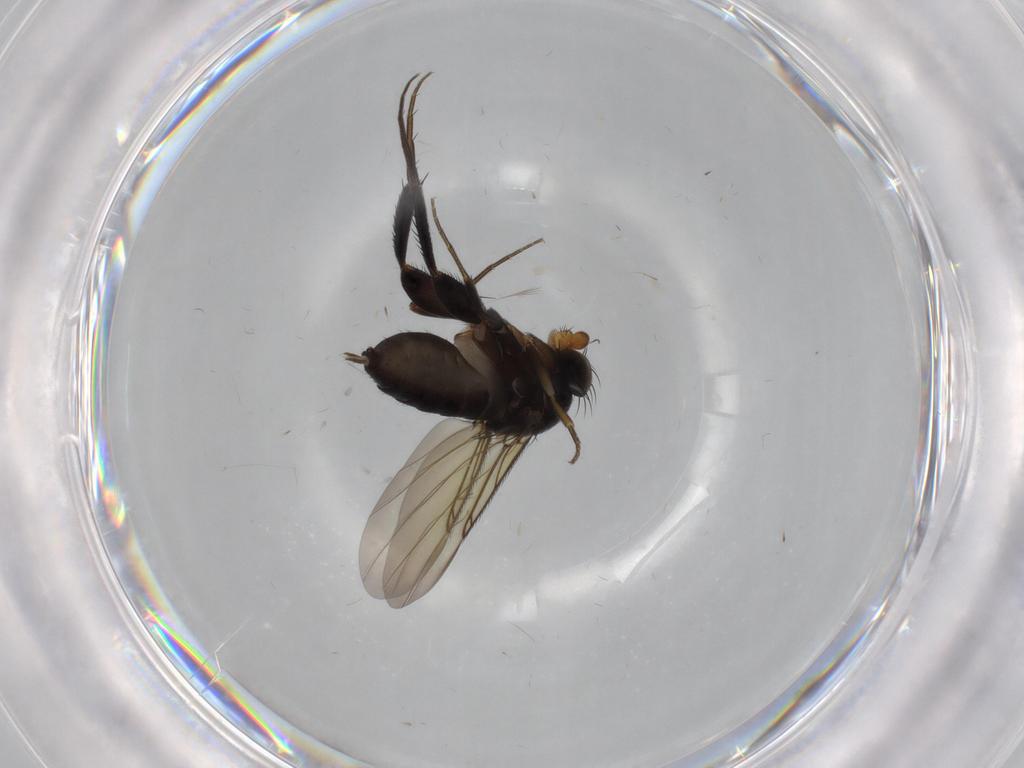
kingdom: Animalia
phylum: Arthropoda
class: Insecta
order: Diptera
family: Phoridae
